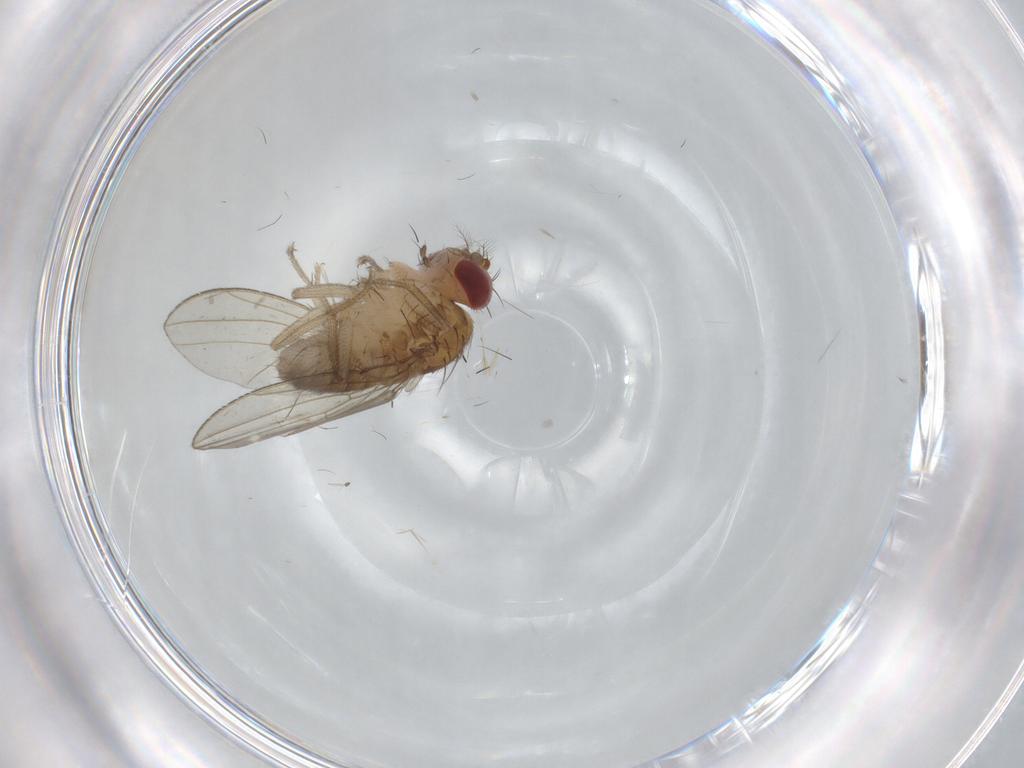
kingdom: Animalia
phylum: Arthropoda
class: Insecta
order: Diptera
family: Drosophilidae
